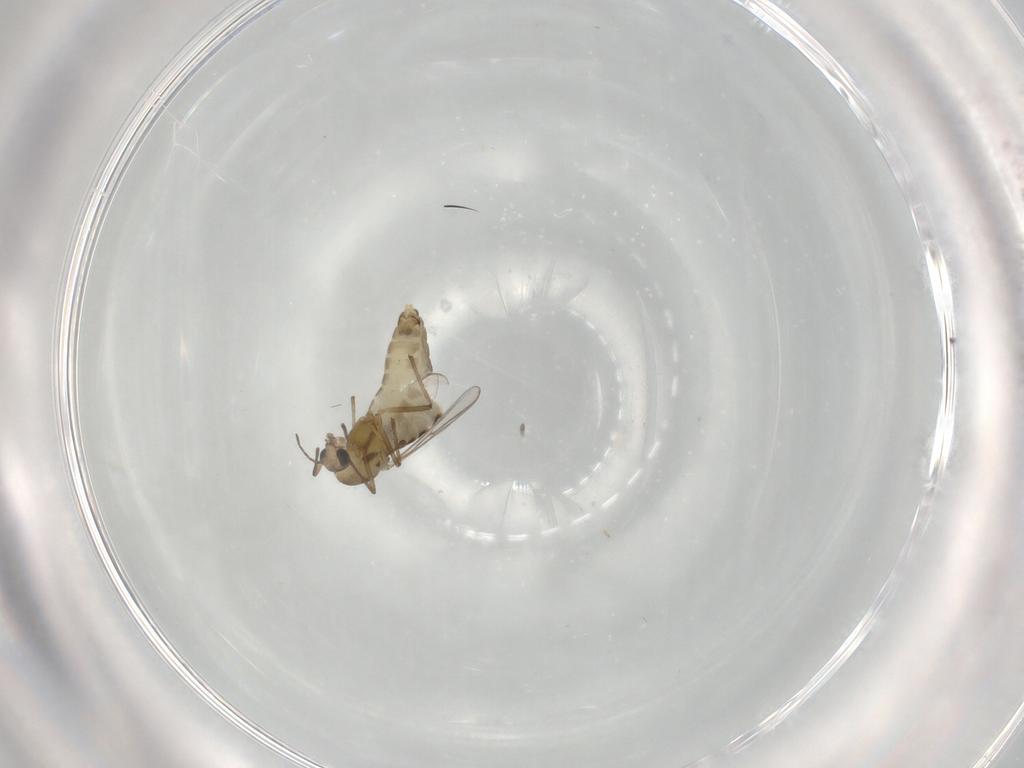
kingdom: Animalia
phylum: Arthropoda
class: Insecta
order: Diptera
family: Chironomidae
